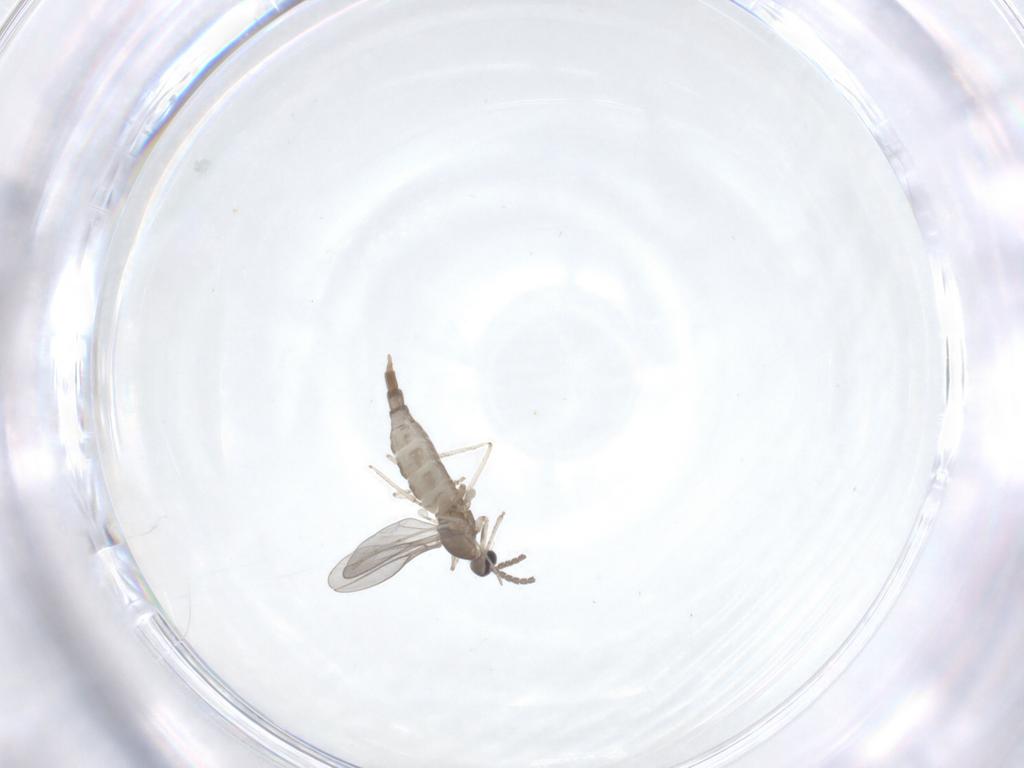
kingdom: Animalia
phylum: Arthropoda
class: Insecta
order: Diptera
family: Cecidomyiidae
